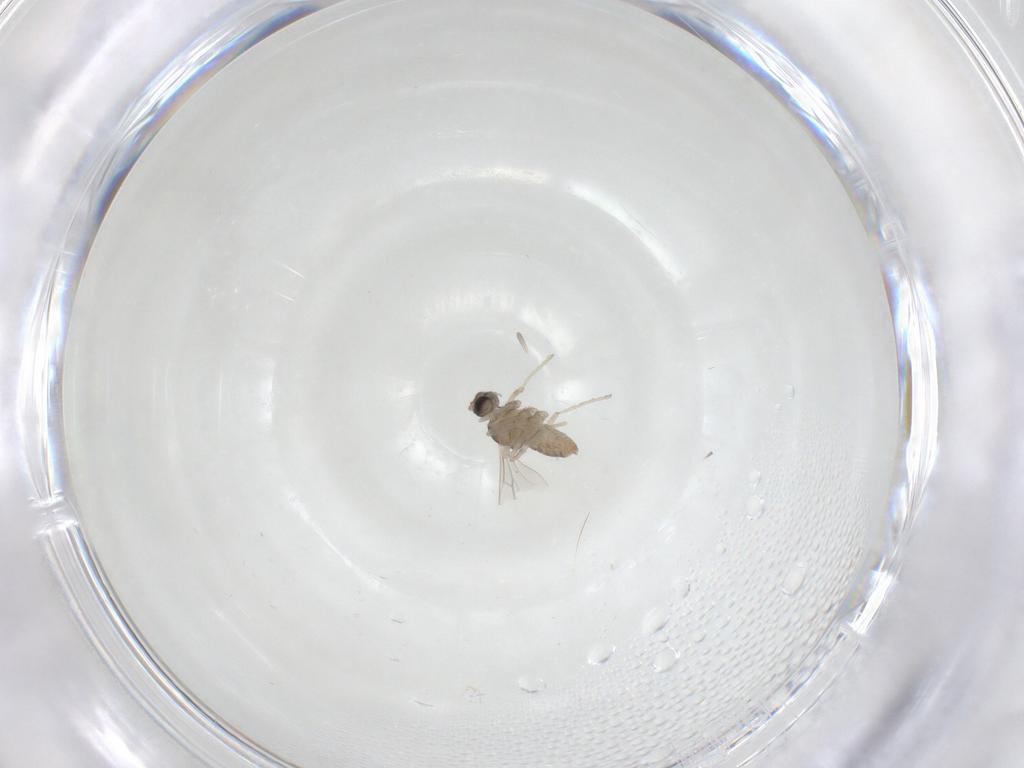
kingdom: Animalia
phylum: Arthropoda
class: Insecta
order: Diptera
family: Cecidomyiidae
